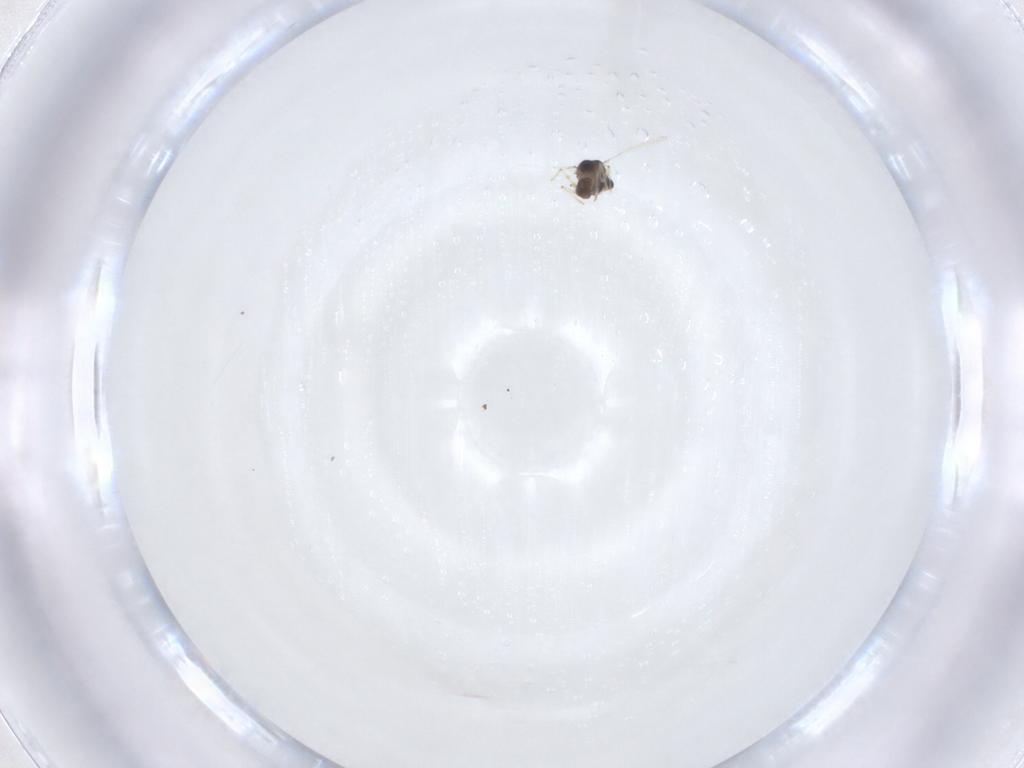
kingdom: Animalia
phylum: Arthropoda
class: Insecta
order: Diptera
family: Chironomidae
